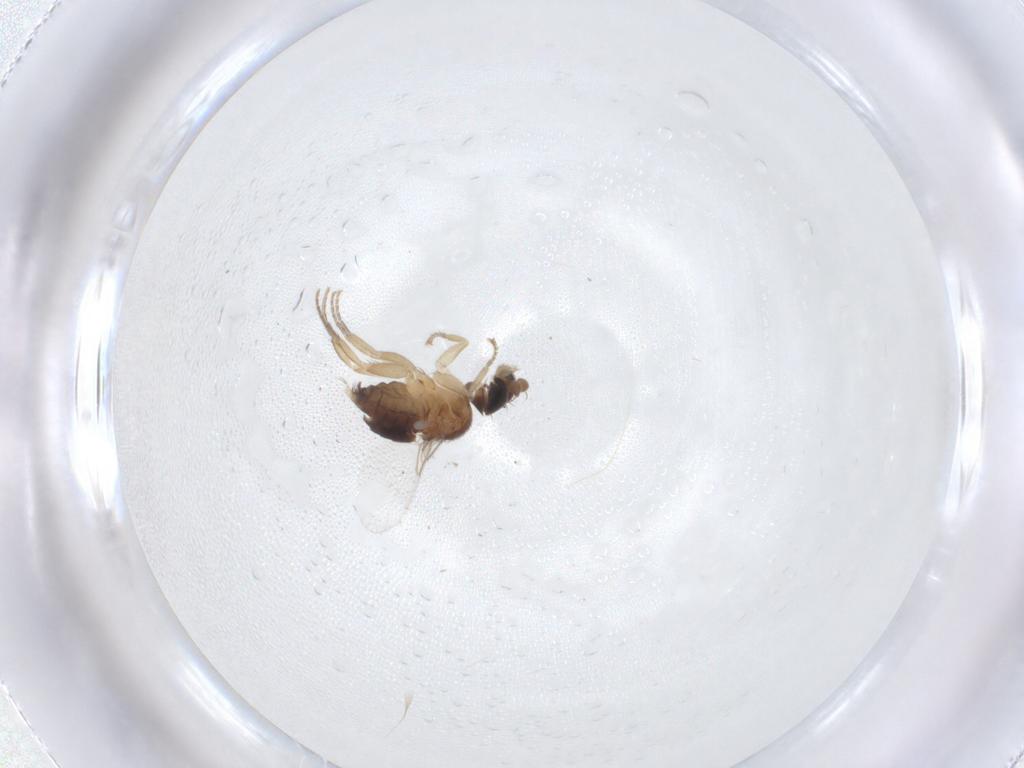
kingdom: Animalia
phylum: Arthropoda
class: Insecta
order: Diptera
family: Phoridae
